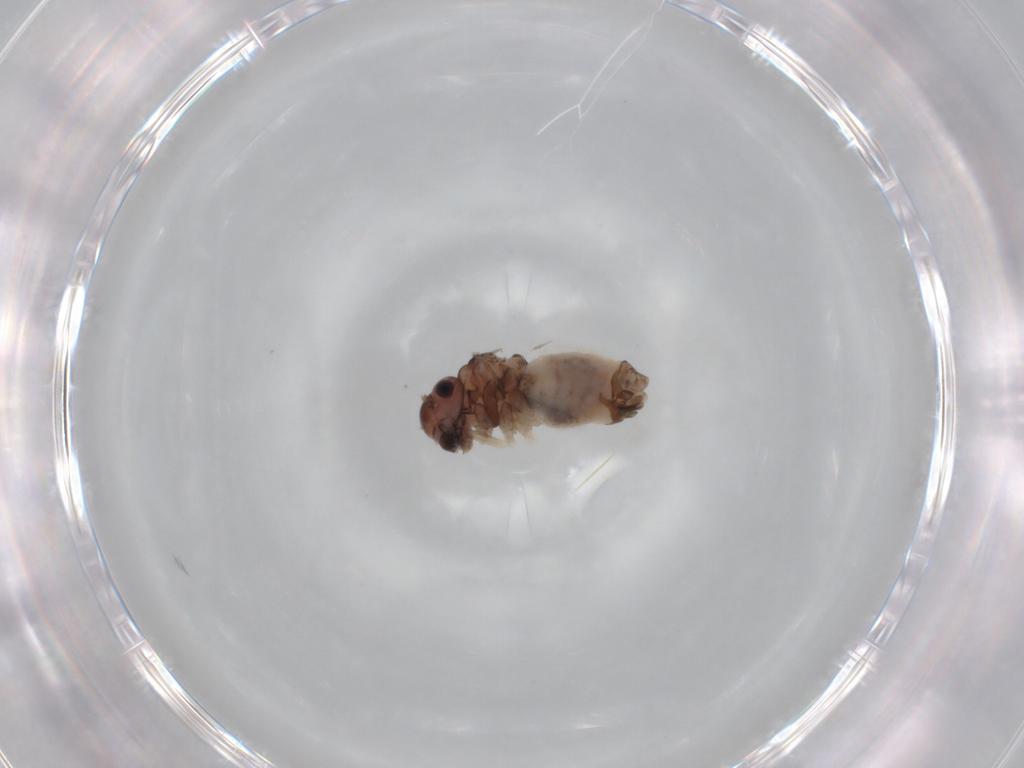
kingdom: Animalia
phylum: Arthropoda
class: Insecta
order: Psocodea
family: Peripsocidae
